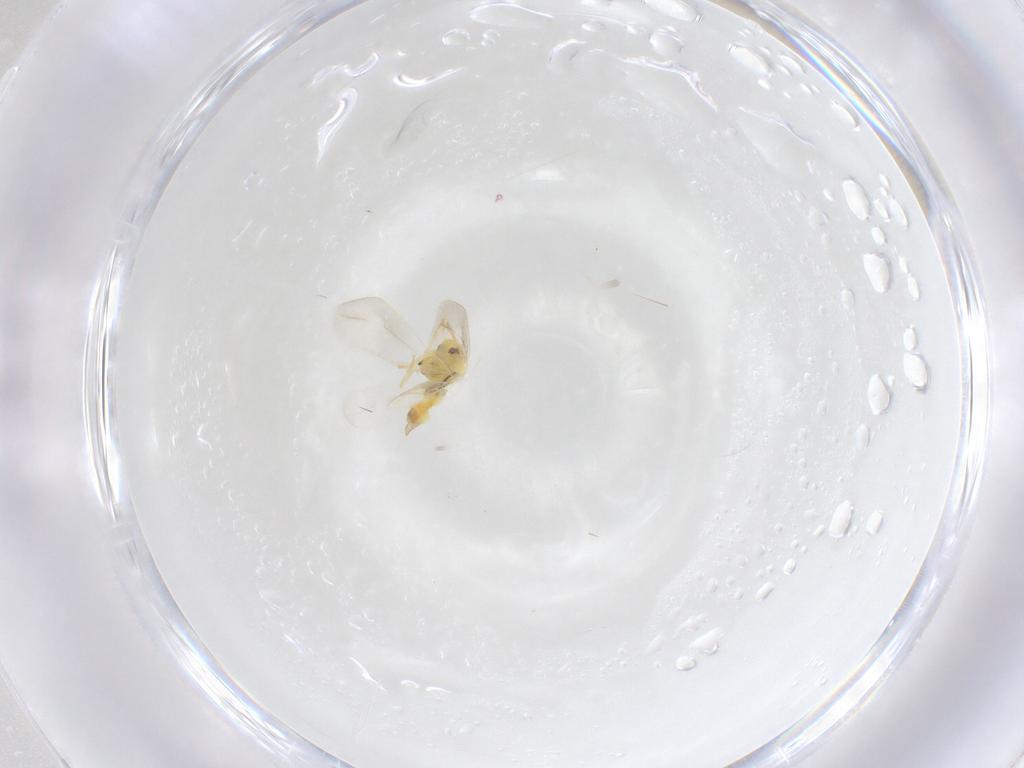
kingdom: Animalia
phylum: Arthropoda
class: Insecta
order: Hemiptera
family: Aleyrodidae
